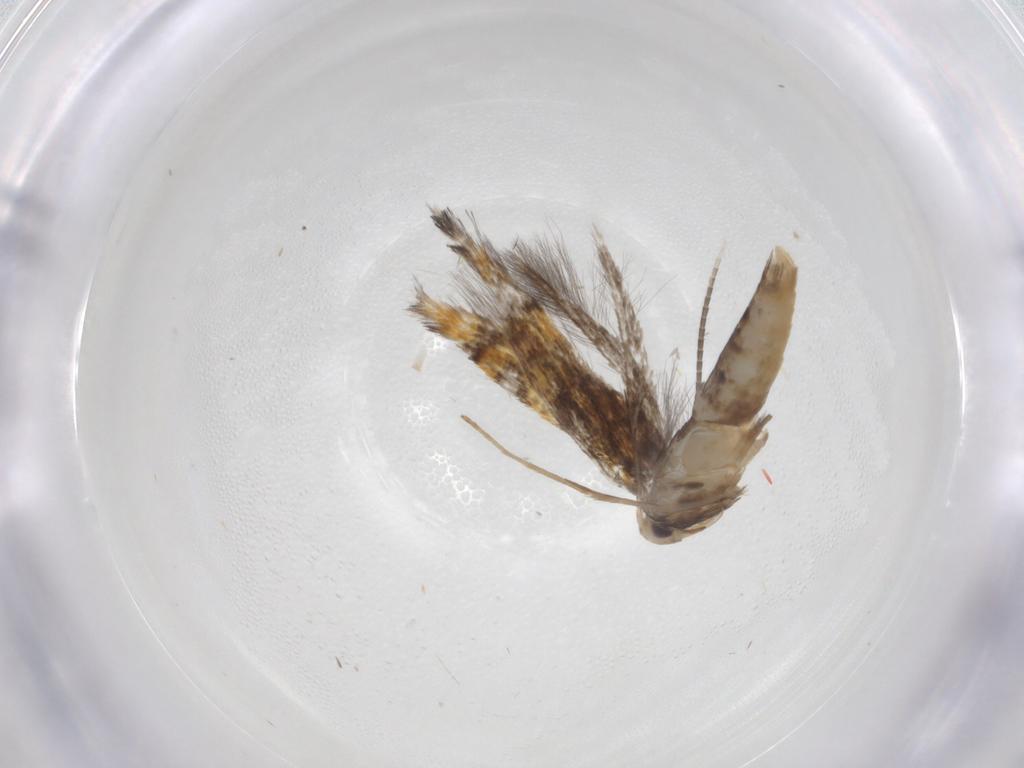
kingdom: Animalia
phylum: Arthropoda
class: Insecta
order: Lepidoptera
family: Gracillariidae
